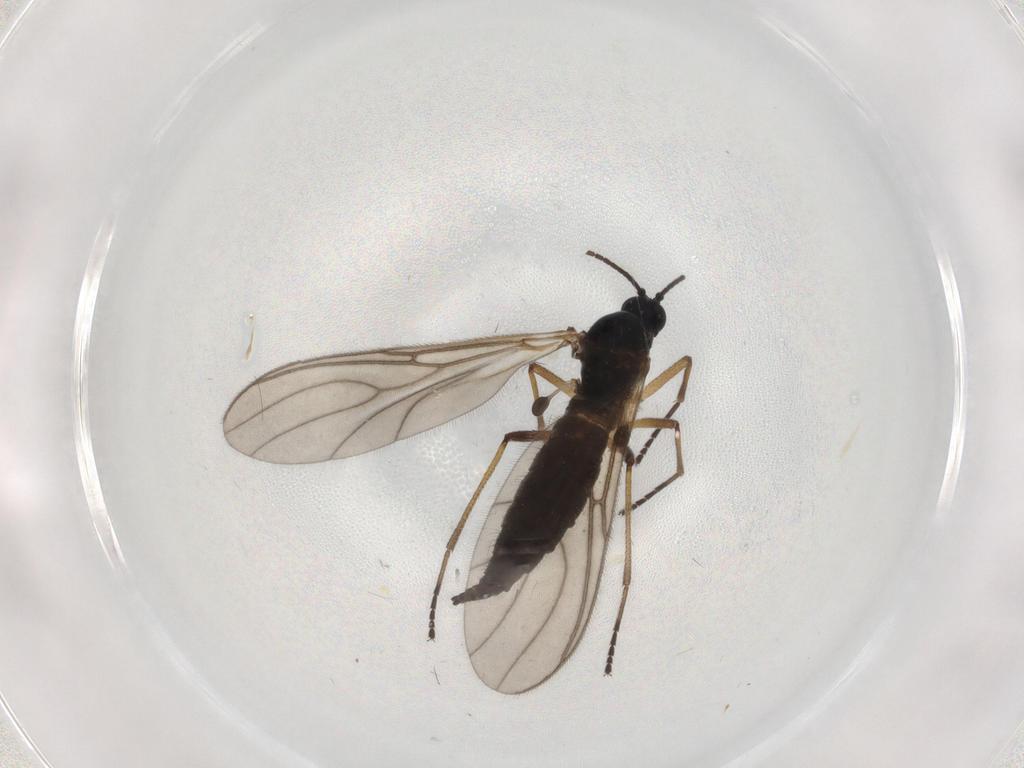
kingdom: Animalia
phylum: Arthropoda
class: Insecta
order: Diptera
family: Sciaridae
